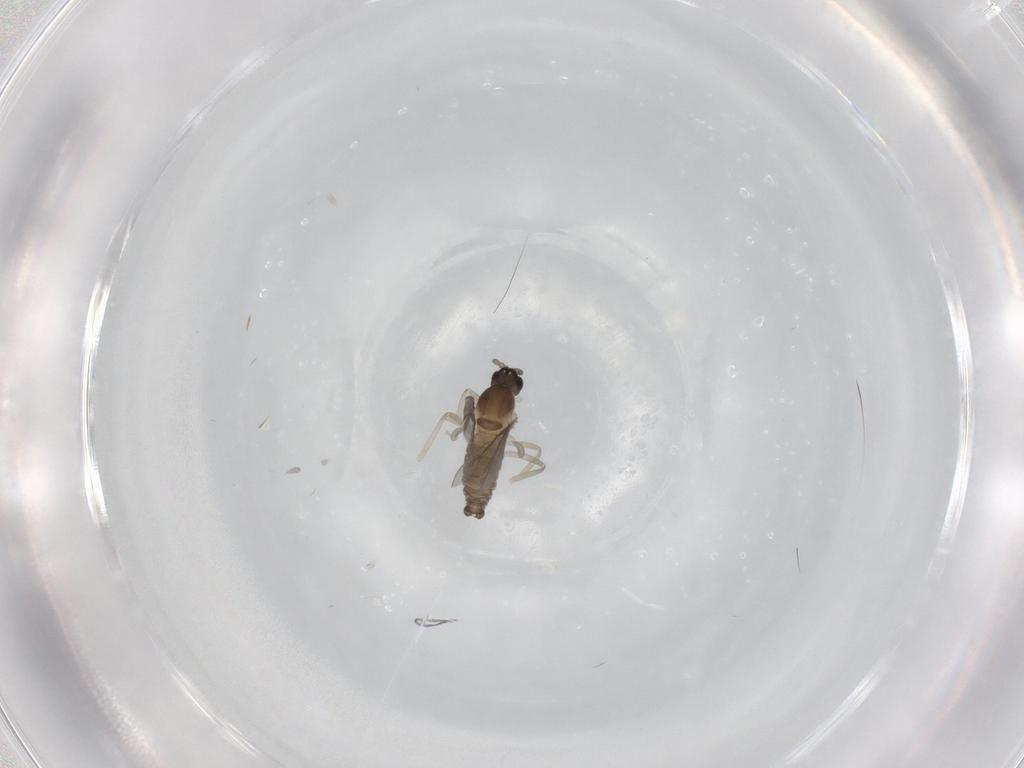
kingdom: Animalia
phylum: Arthropoda
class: Insecta
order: Diptera
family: Cecidomyiidae
